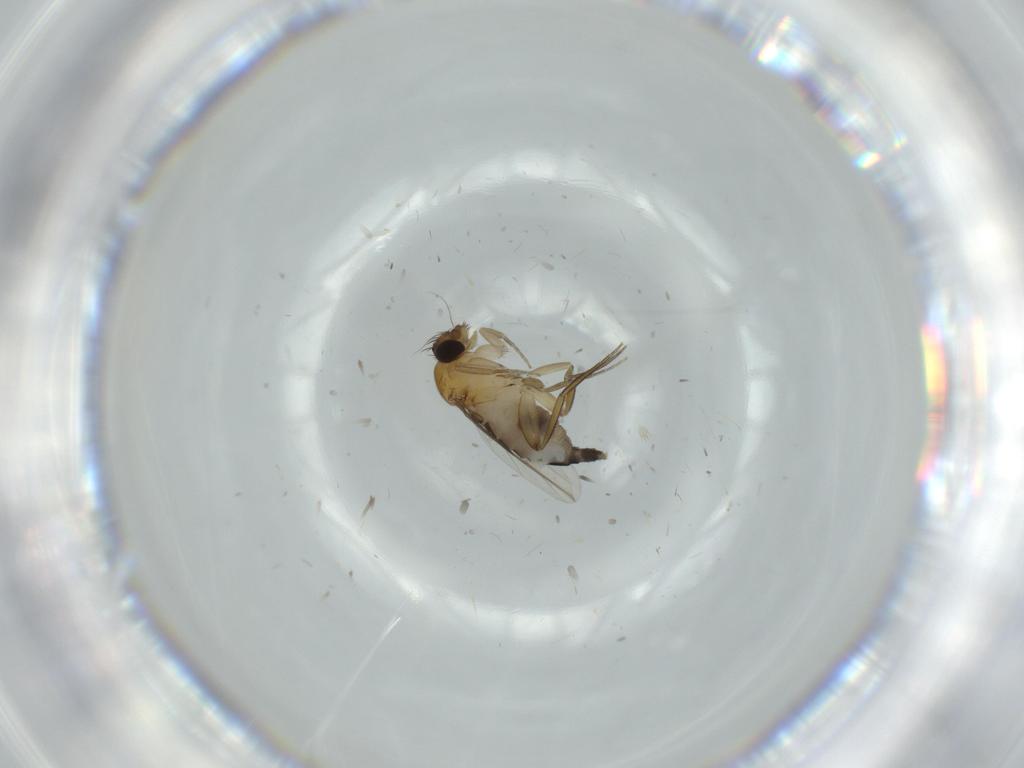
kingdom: Animalia
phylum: Arthropoda
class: Insecta
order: Diptera
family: Phoridae
